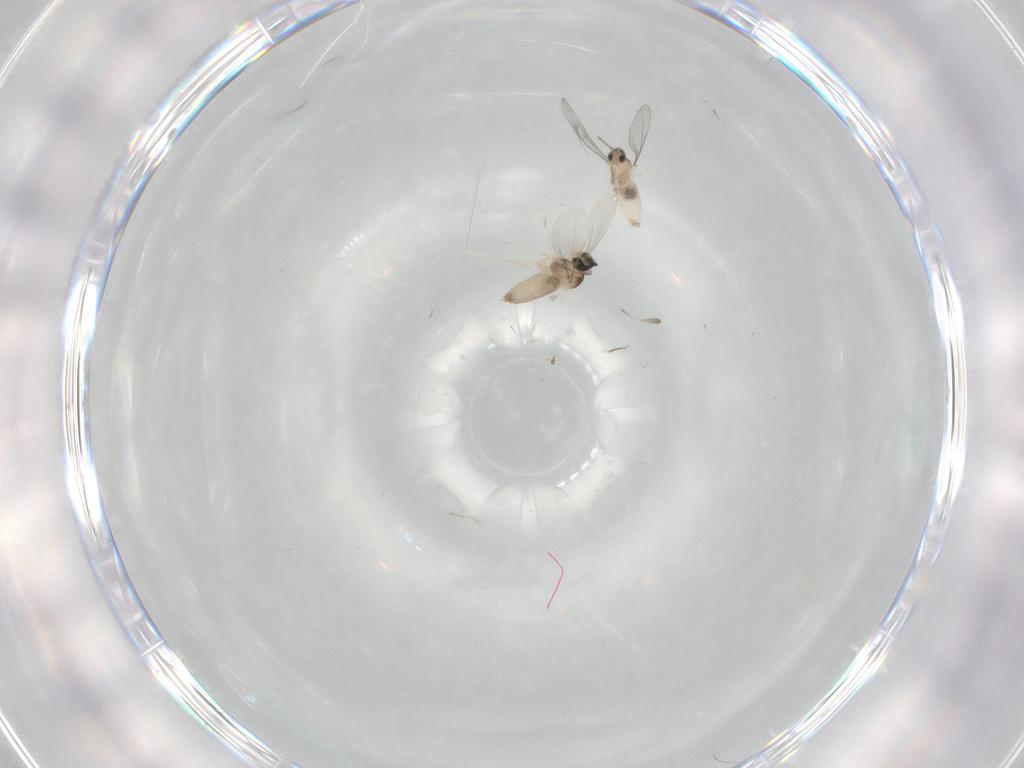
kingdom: Animalia
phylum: Arthropoda
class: Insecta
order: Diptera
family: Cecidomyiidae
